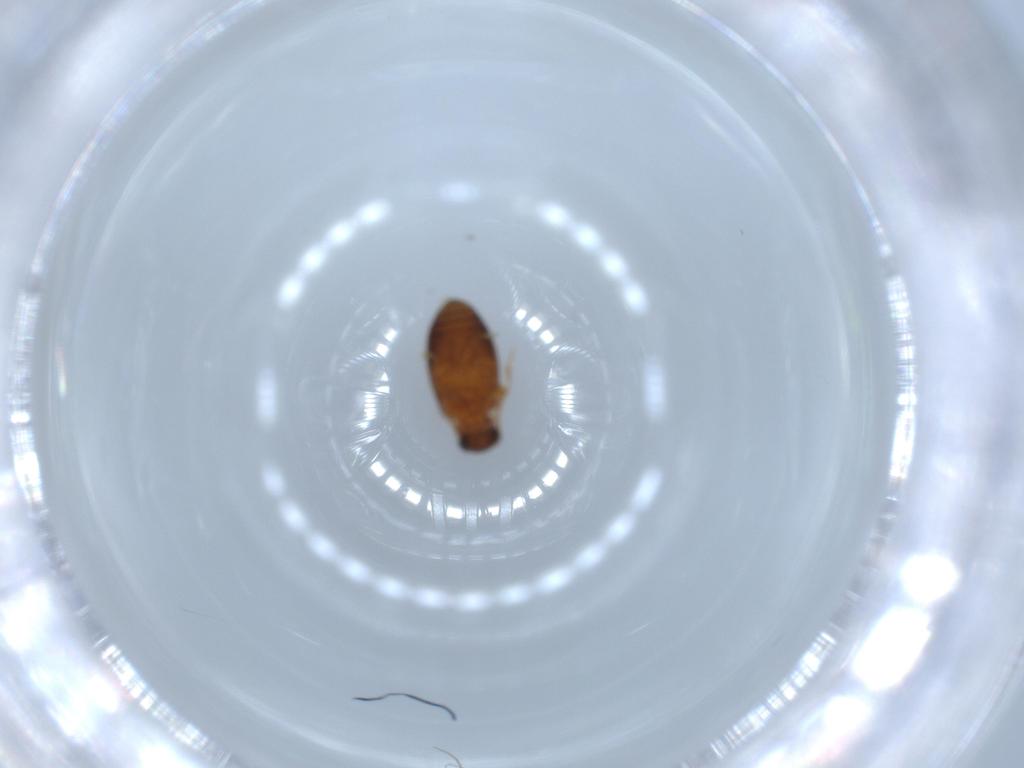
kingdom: Animalia
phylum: Arthropoda
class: Insecta
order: Coleoptera
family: Aderidae
